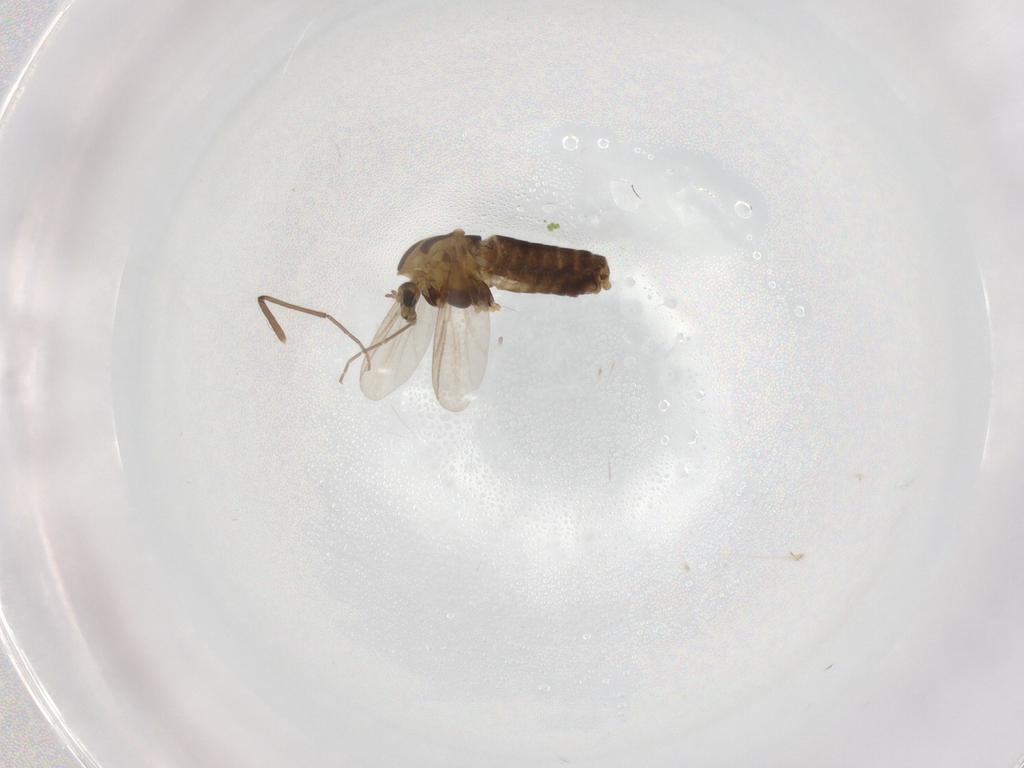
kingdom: Animalia
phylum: Arthropoda
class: Insecta
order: Diptera
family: Chironomidae
